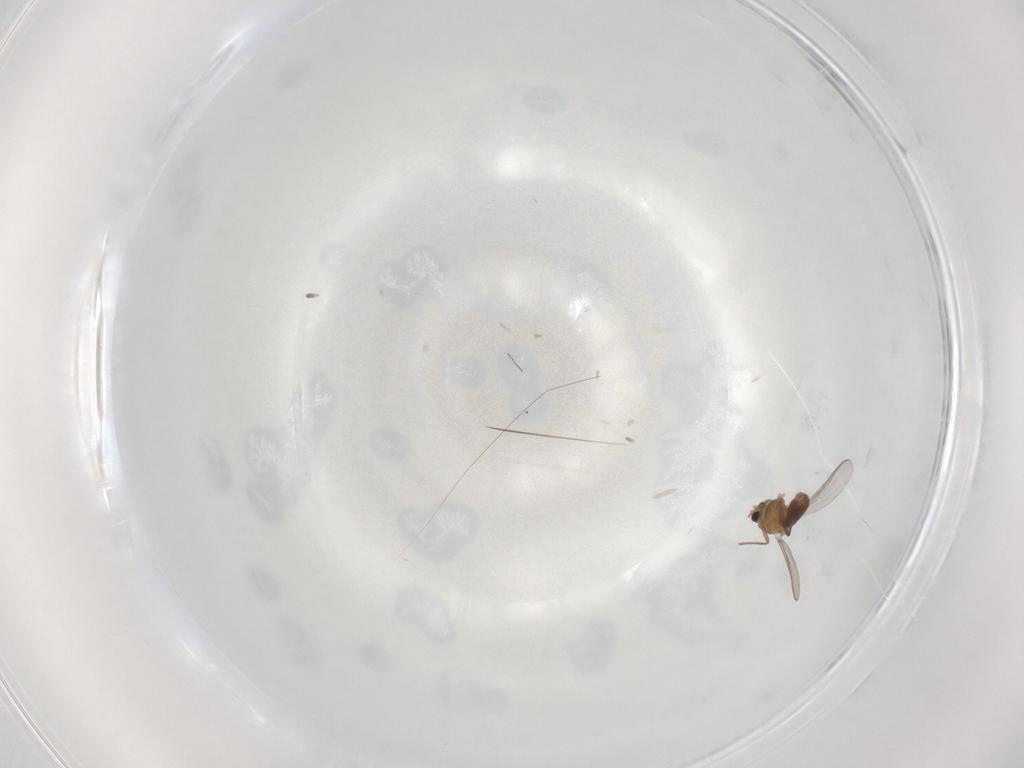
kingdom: Animalia
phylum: Arthropoda
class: Insecta
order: Diptera
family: Chironomidae
